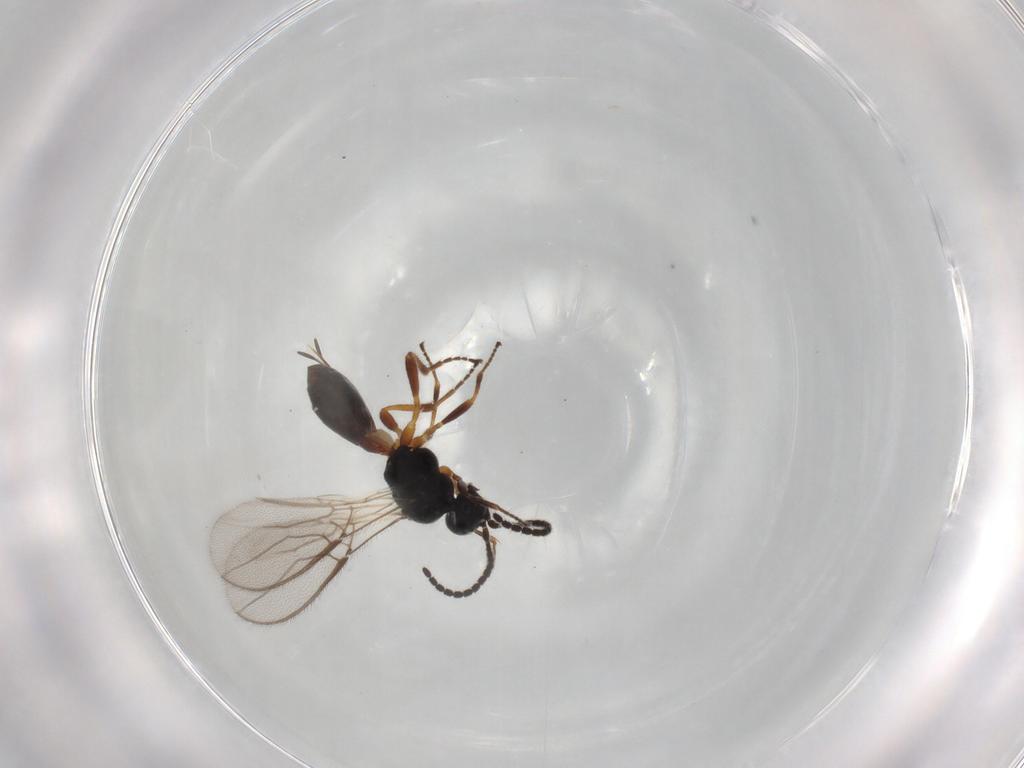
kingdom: Animalia
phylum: Arthropoda
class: Insecta
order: Hymenoptera
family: Braconidae
